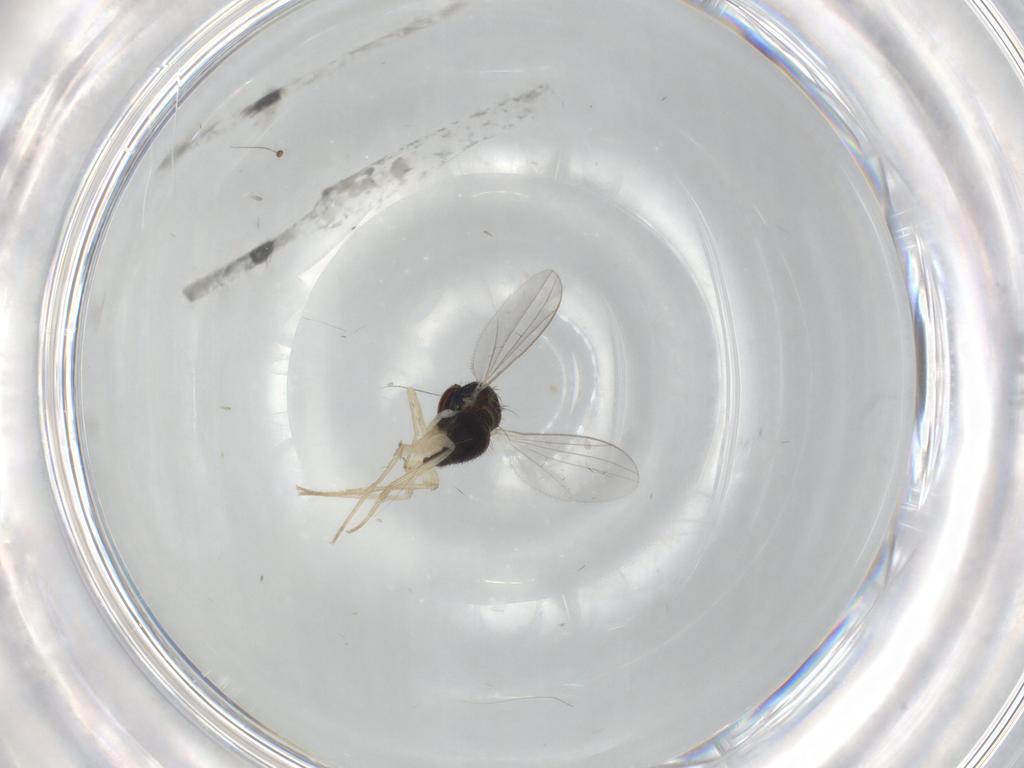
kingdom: Animalia
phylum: Arthropoda
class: Insecta
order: Diptera
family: Dolichopodidae
